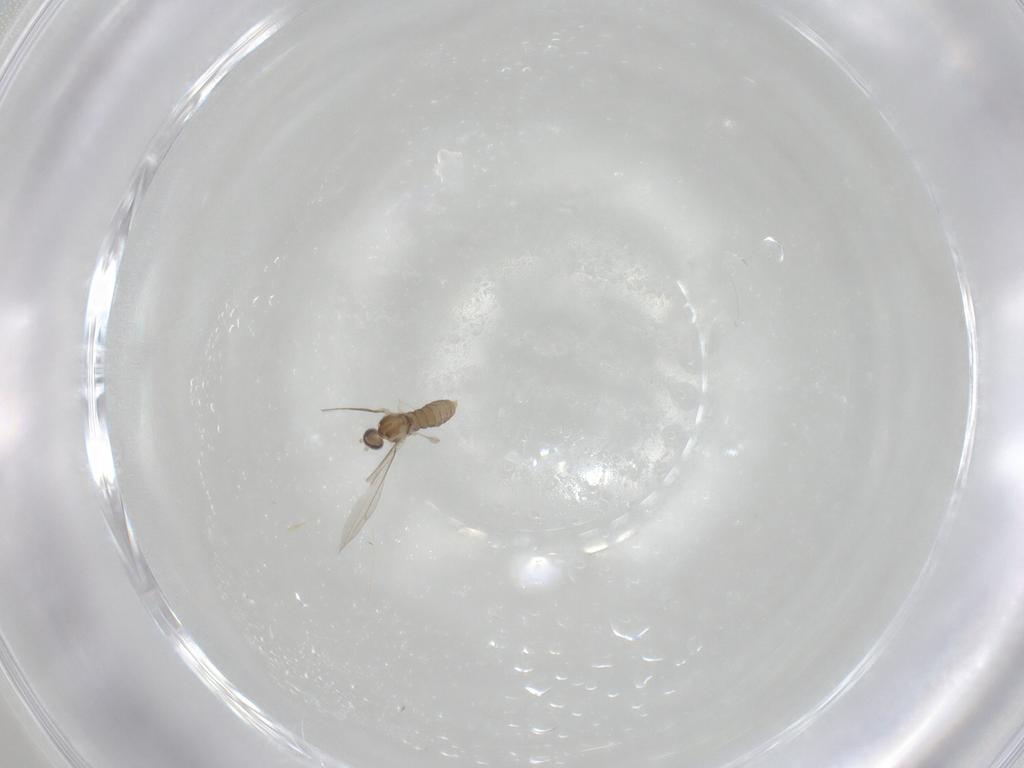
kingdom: Animalia
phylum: Arthropoda
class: Insecta
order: Diptera
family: Cecidomyiidae
